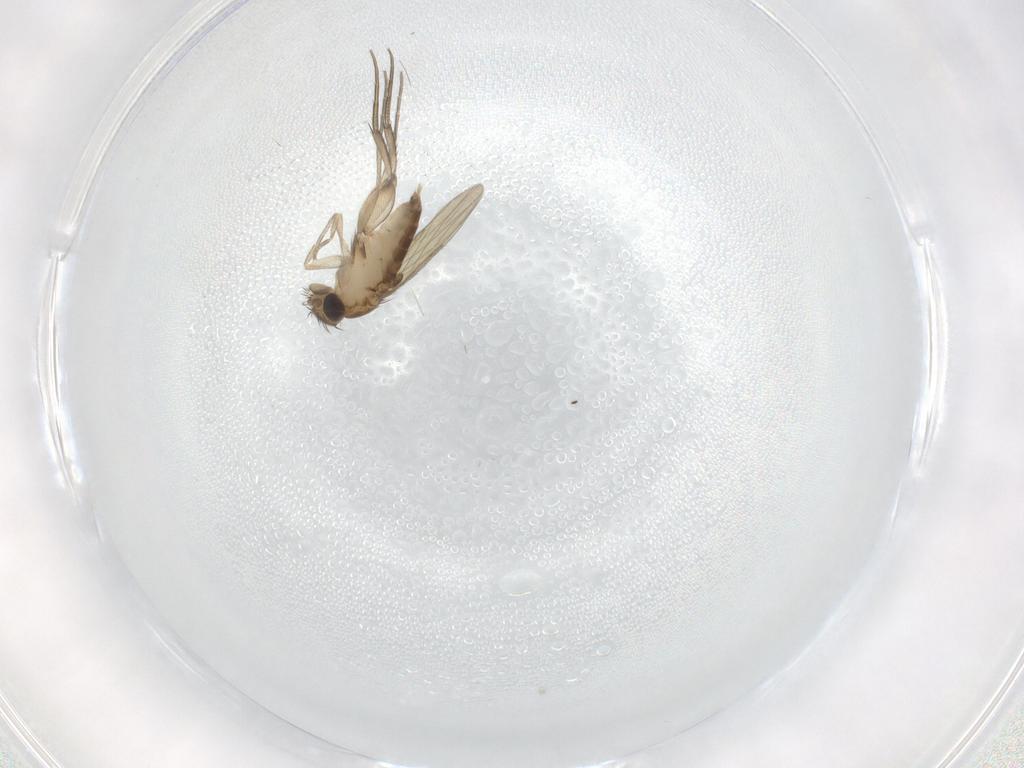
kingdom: Animalia
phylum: Arthropoda
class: Insecta
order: Diptera
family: Phoridae
